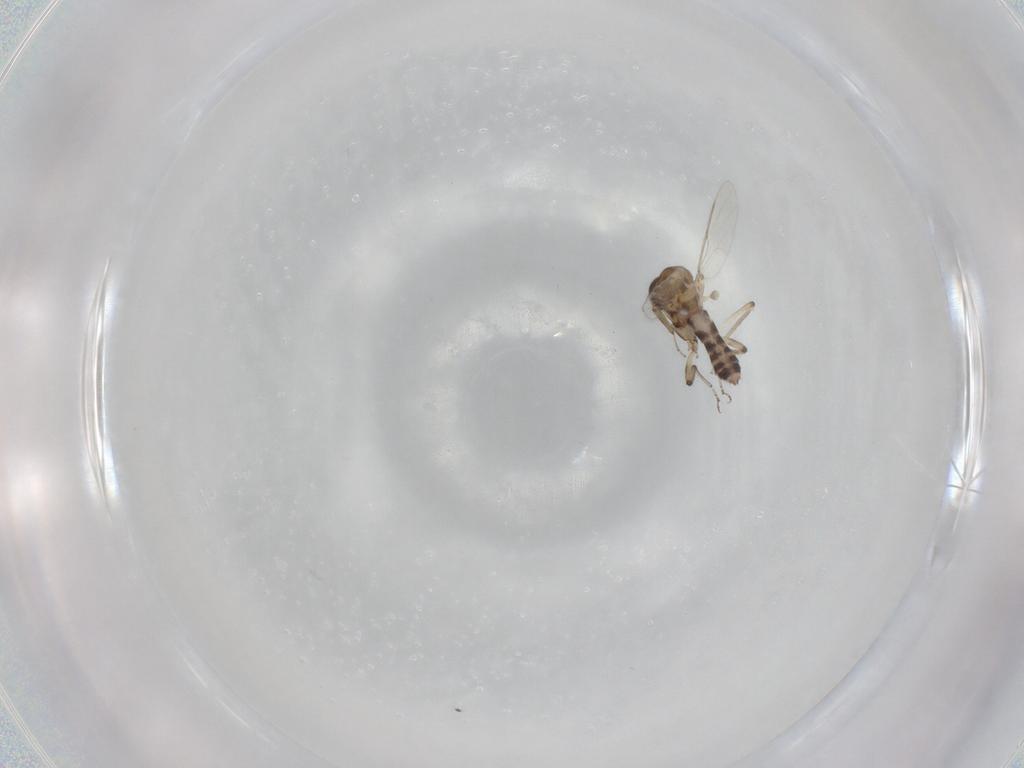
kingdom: Animalia
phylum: Arthropoda
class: Insecta
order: Diptera
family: Ceratopogonidae
